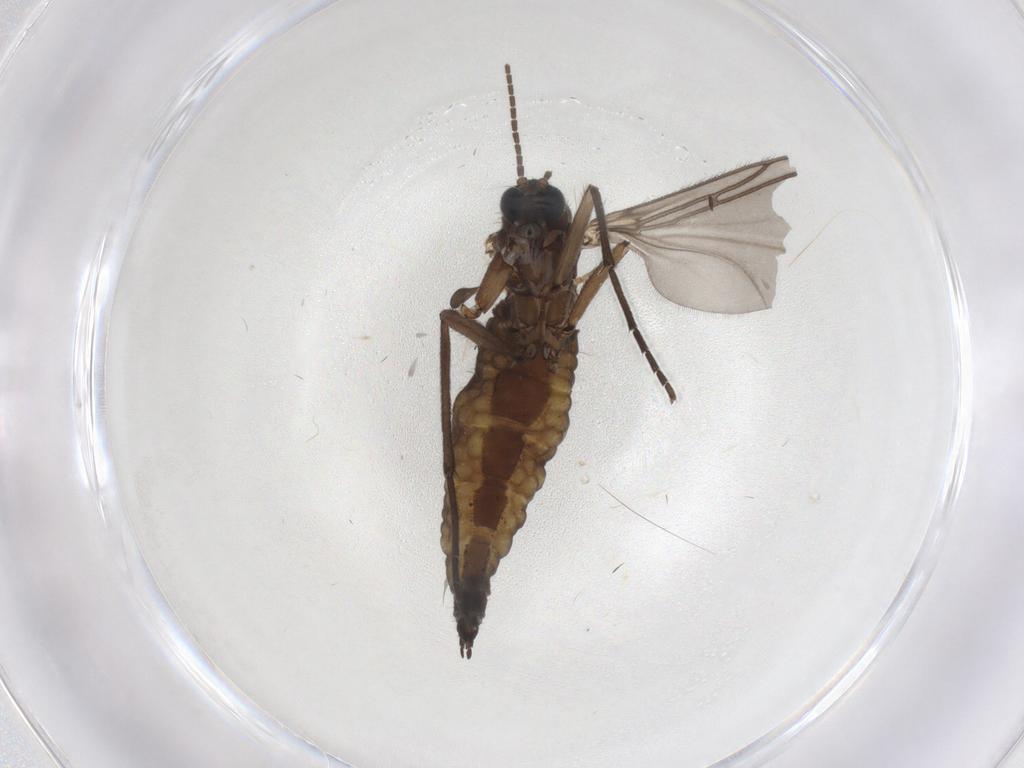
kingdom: Animalia
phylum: Arthropoda
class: Insecta
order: Diptera
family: Sciaridae
